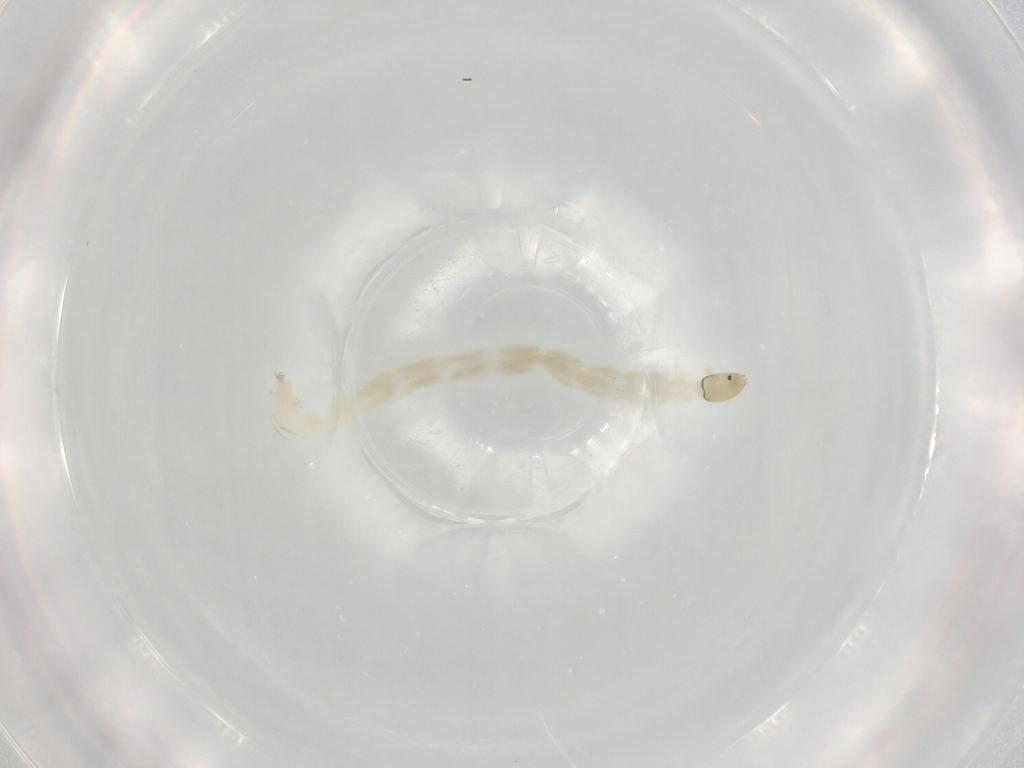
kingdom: Animalia
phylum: Arthropoda
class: Insecta
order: Diptera
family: Chironomidae
